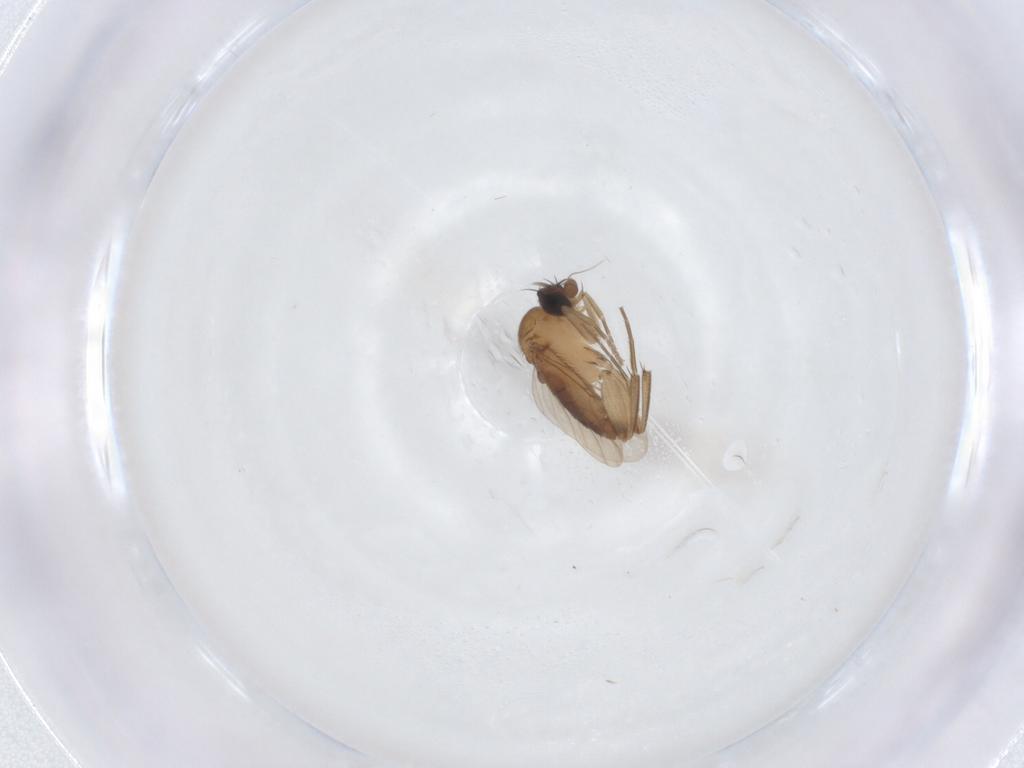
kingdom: Animalia
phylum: Arthropoda
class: Insecta
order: Diptera
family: Phoridae
